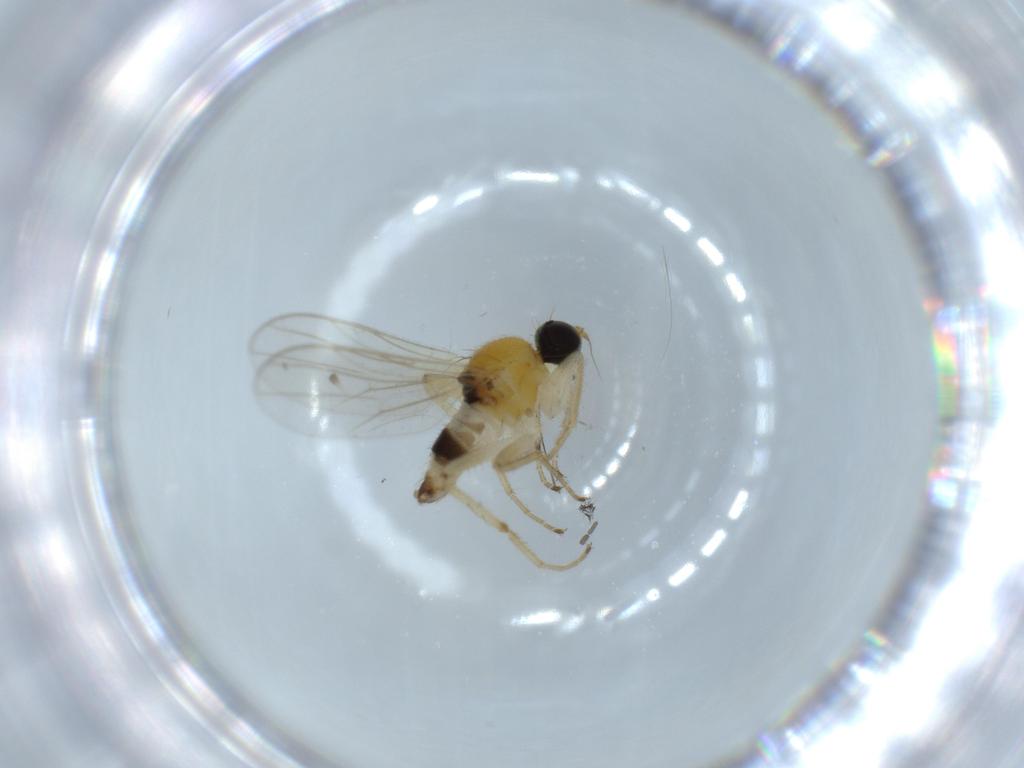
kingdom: Animalia
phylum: Arthropoda
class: Insecta
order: Diptera
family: Hybotidae
